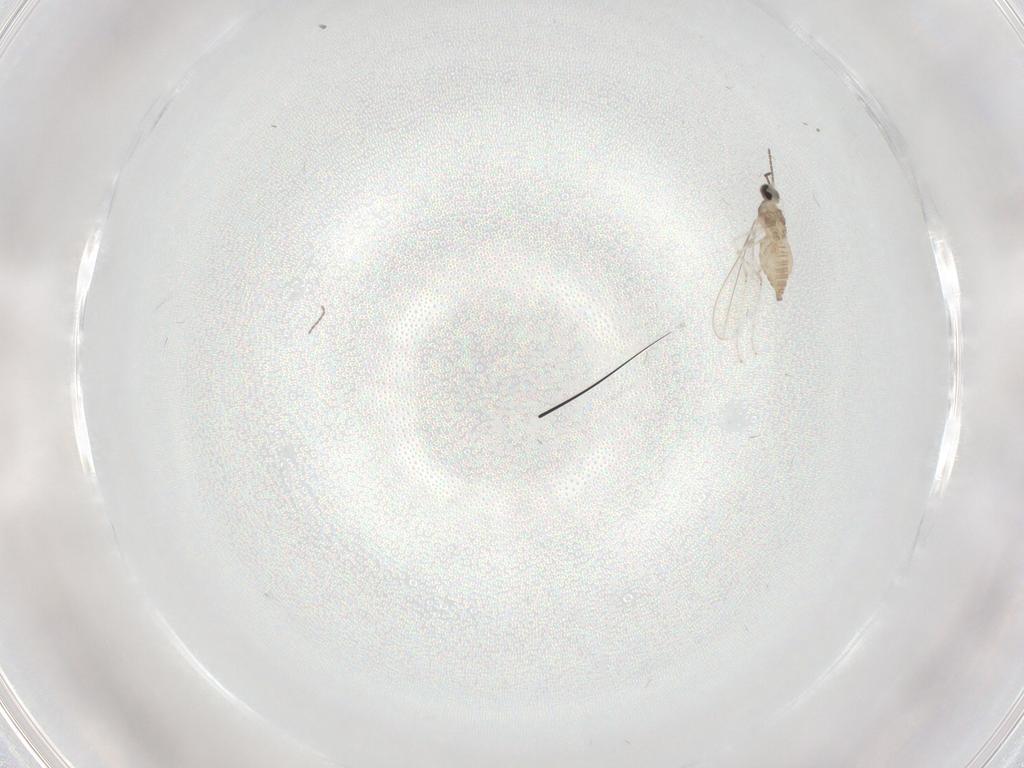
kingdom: Animalia
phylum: Arthropoda
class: Insecta
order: Diptera
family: Cecidomyiidae
